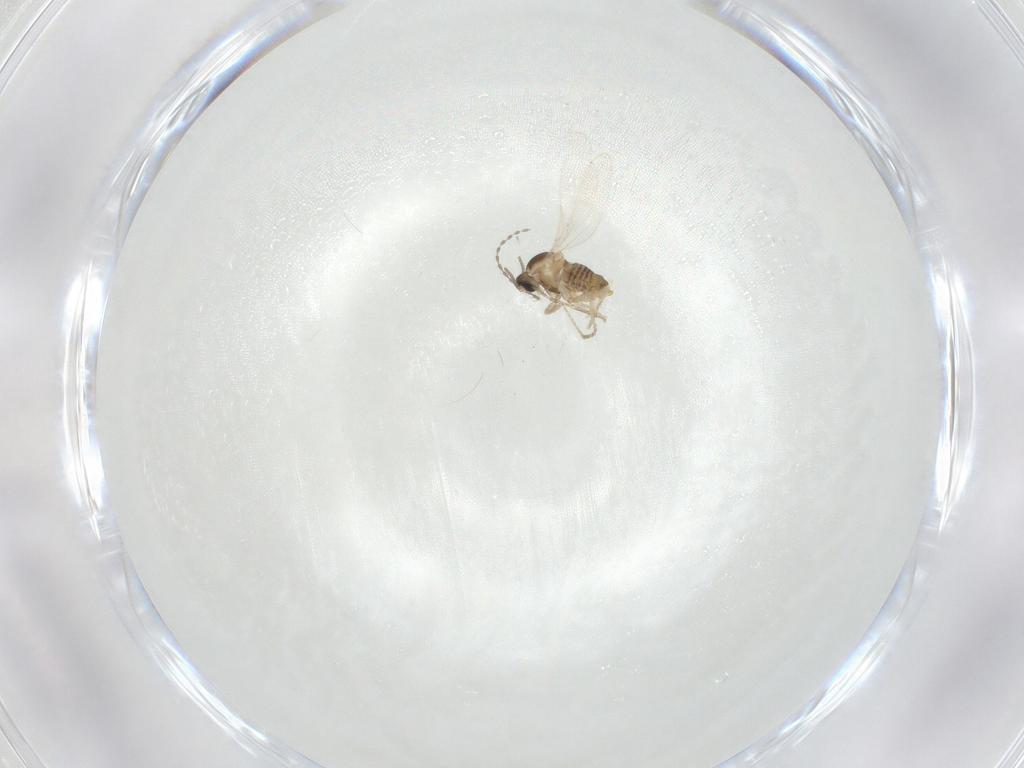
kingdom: Animalia
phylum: Arthropoda
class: Insecta
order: Diptera
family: Cecidomyiidae
